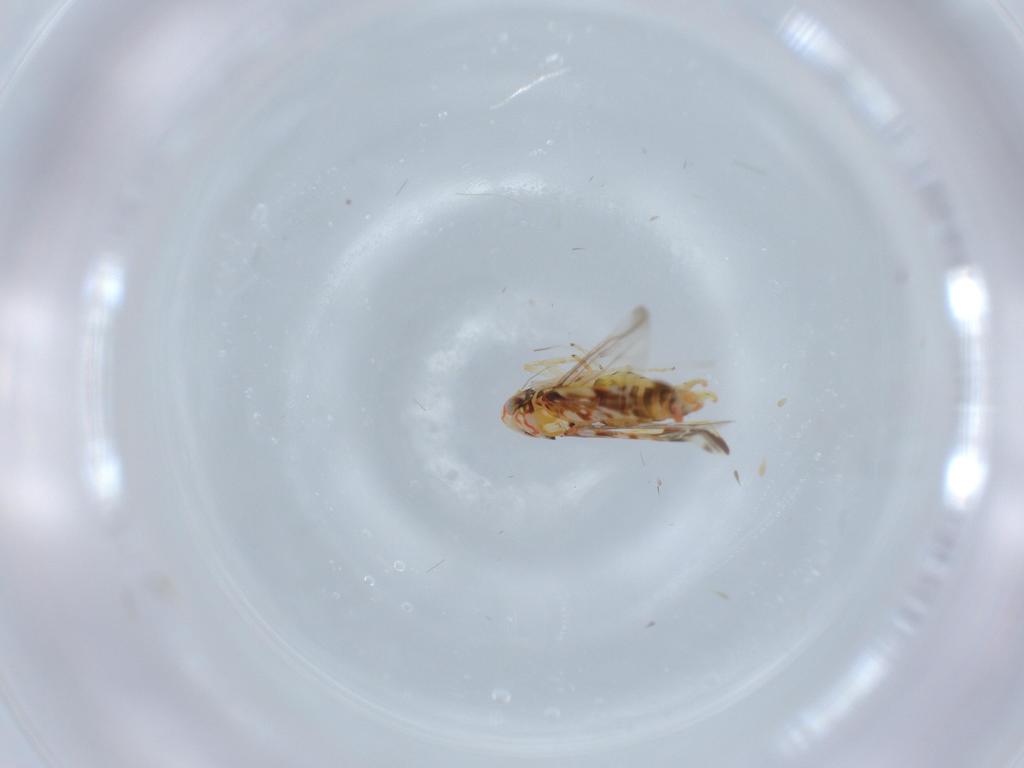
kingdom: Animalia
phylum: Arthropoda
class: Insecta
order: Hemiptera
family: Cicadellidae
